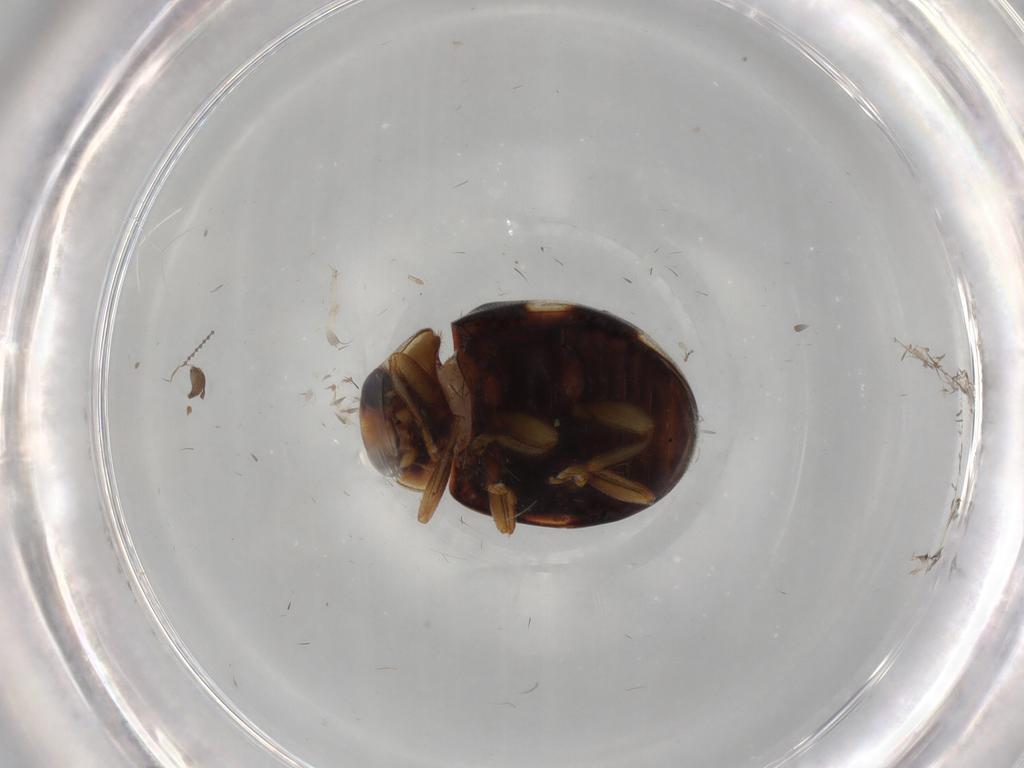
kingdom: Animalia
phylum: Arthropoda
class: Insecta
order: Coleoptera
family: Coccinellidae
